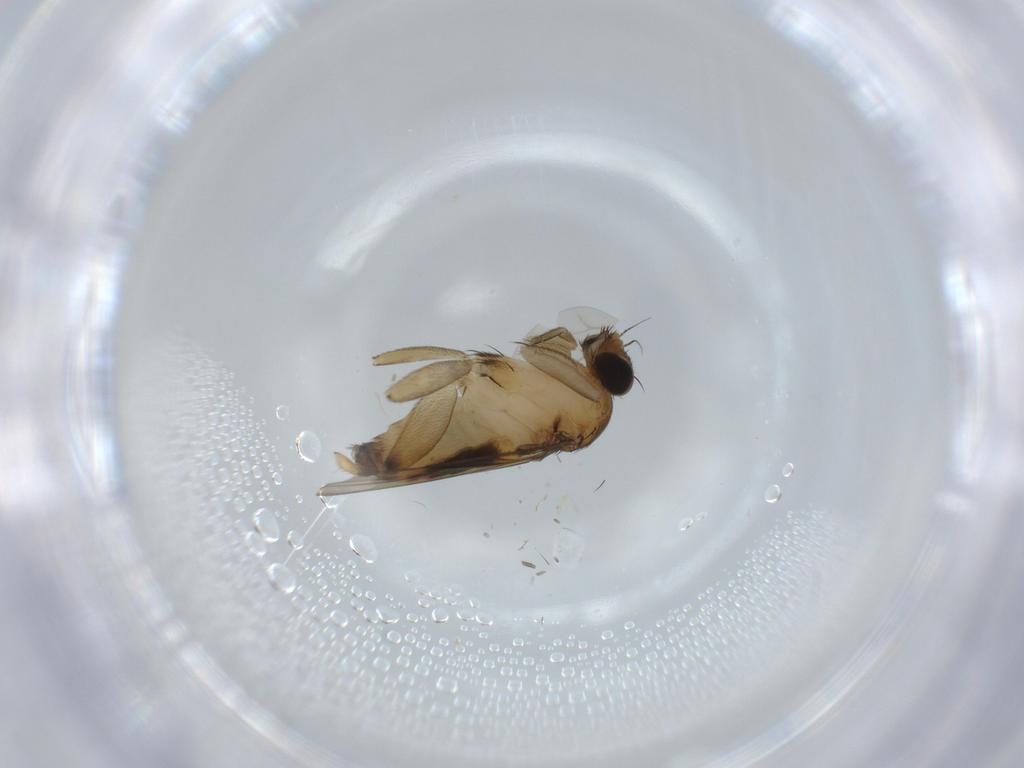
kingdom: Animalia
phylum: Arthropoda
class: Insecta
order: Diptera
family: Phoridae
